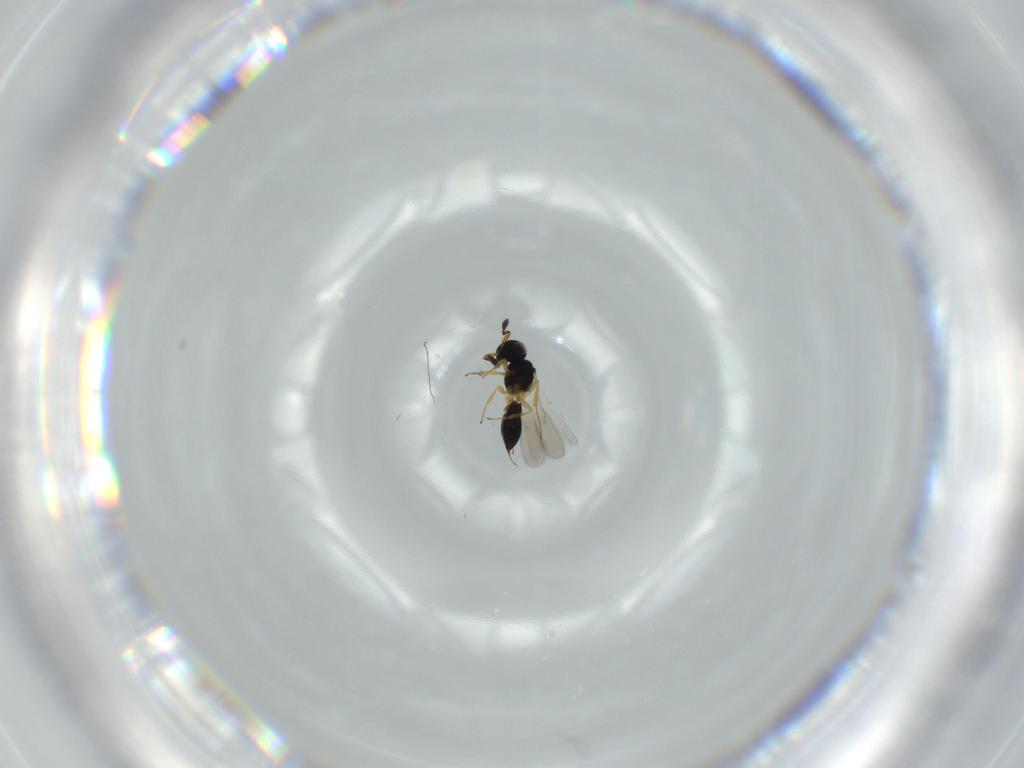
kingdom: Animalia
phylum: Arthropoda
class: Insecta
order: Hymenoptera
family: Scelionidae
